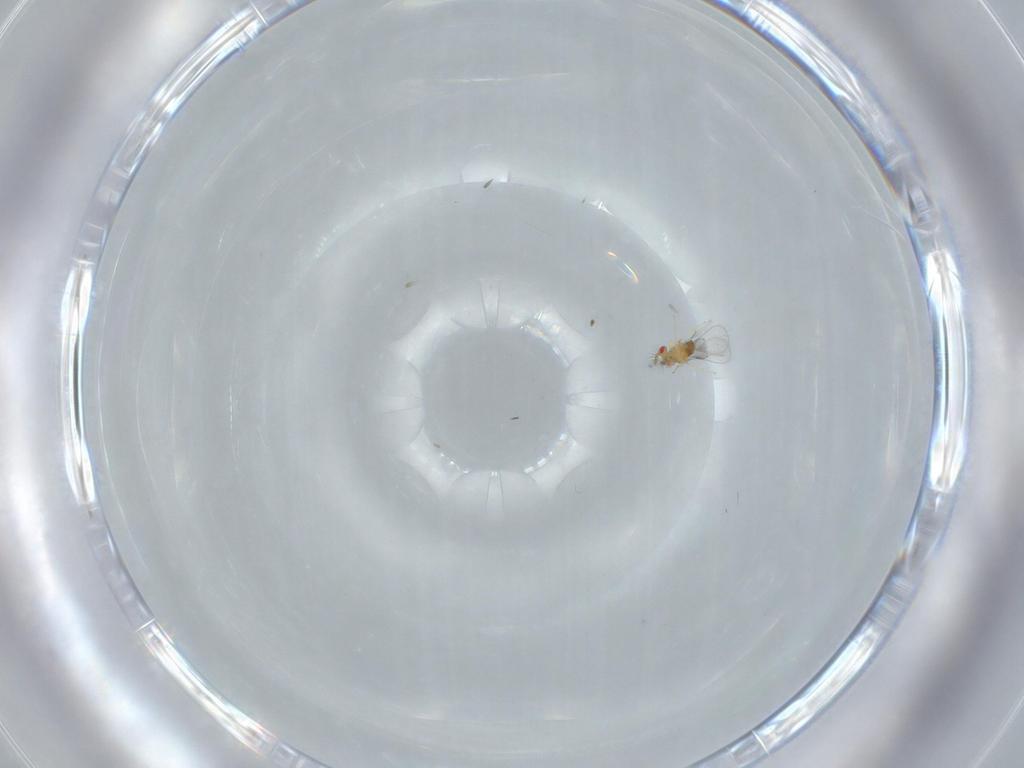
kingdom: Animalia
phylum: Arthropoda
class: Insecta
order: Hymenoptera
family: Trichogrammatidae
